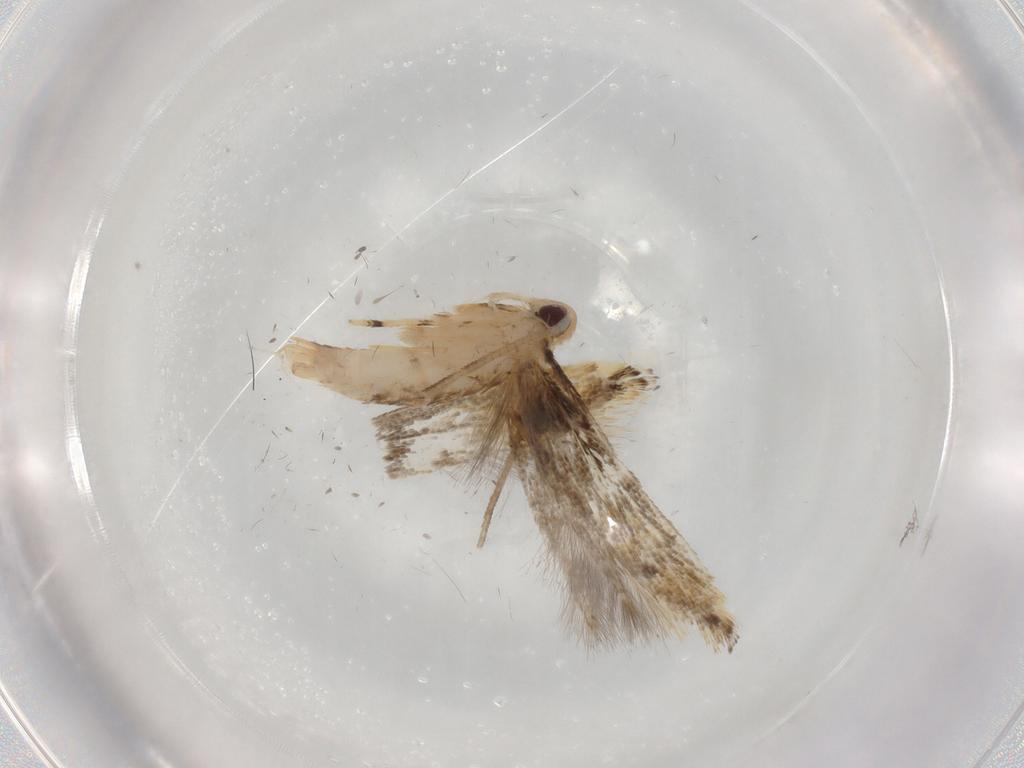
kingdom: Animalia
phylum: Arthropoda
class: Insecta
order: Lepidoptera
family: Momphidae
